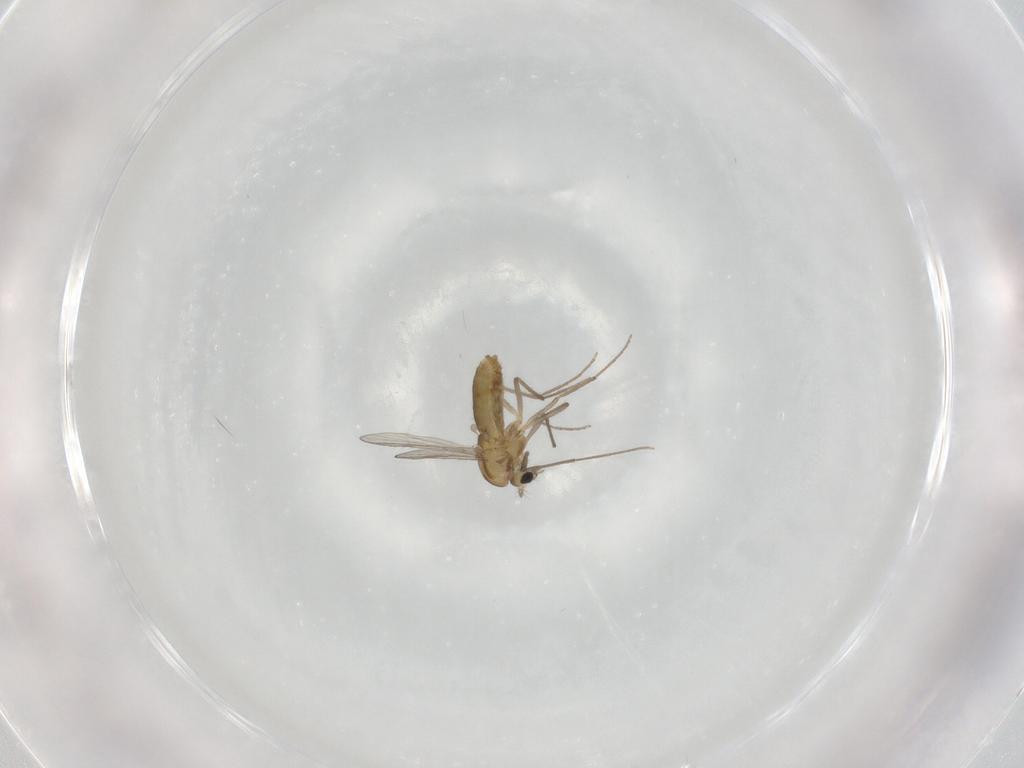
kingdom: Animalia
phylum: Arthropoda
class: Insecta
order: Diptera
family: Chironomidae
